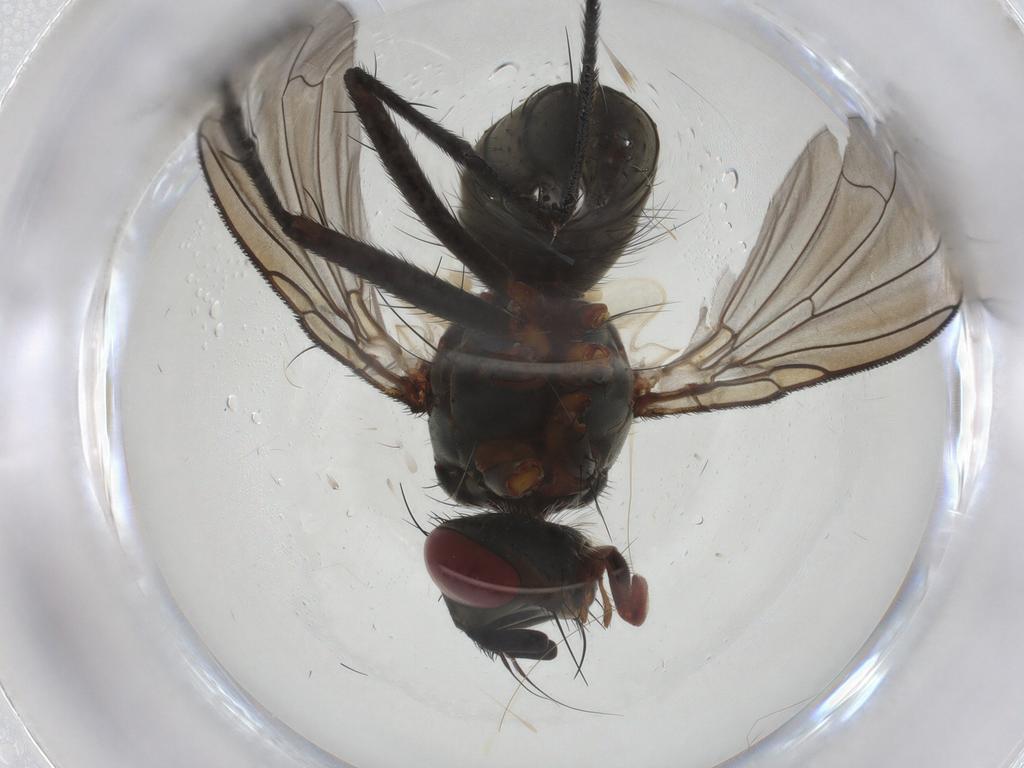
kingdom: Animalia
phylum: Arthropoda
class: Insecta
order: Diptera
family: Tachinidae
